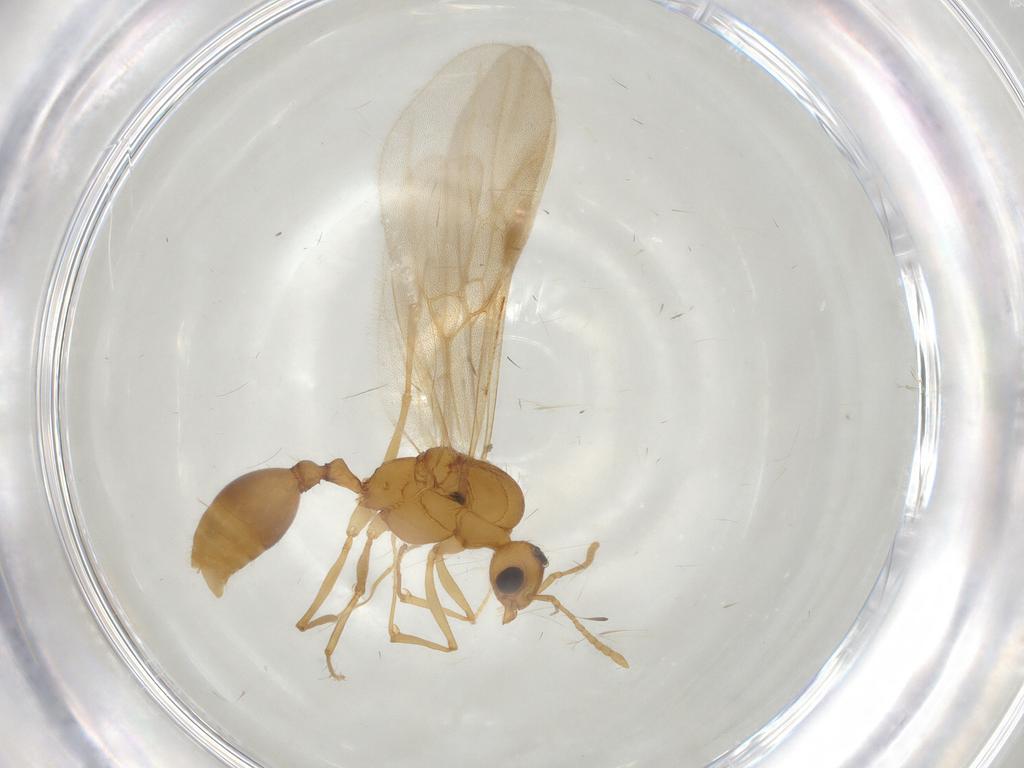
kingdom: Animalia
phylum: Arthropoda
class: Insecta
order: Hymenoptera
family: Formicidae
